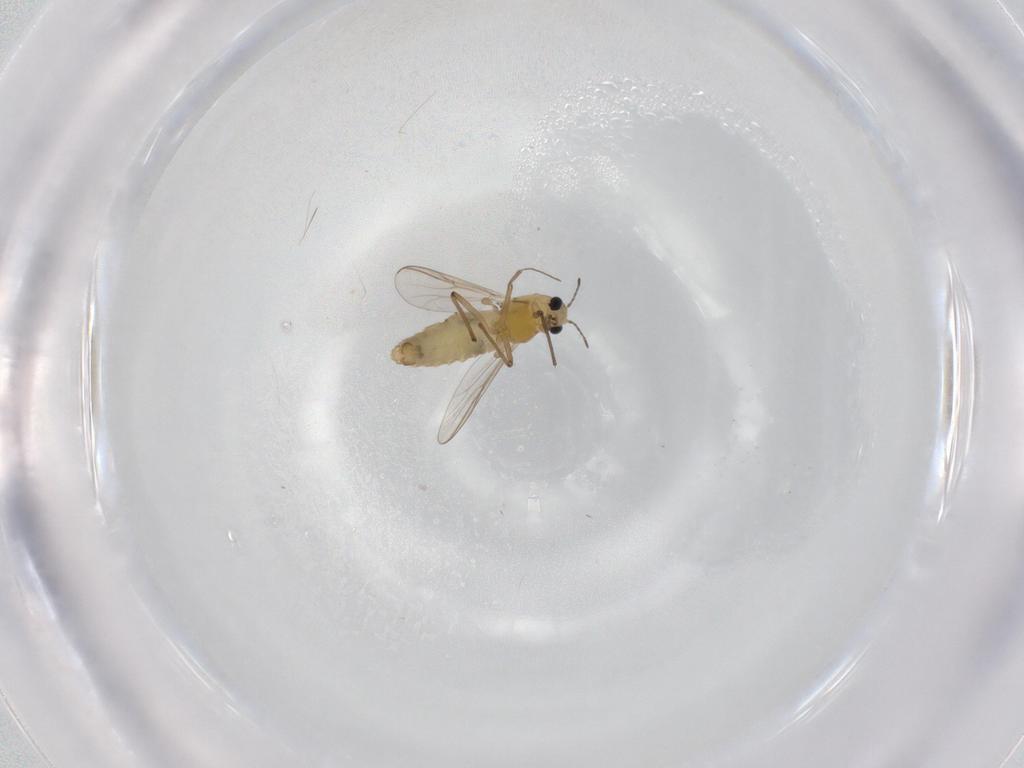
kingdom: Animalia
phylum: Arthropoda
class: Insecta
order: Diptera
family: Chironomidae
